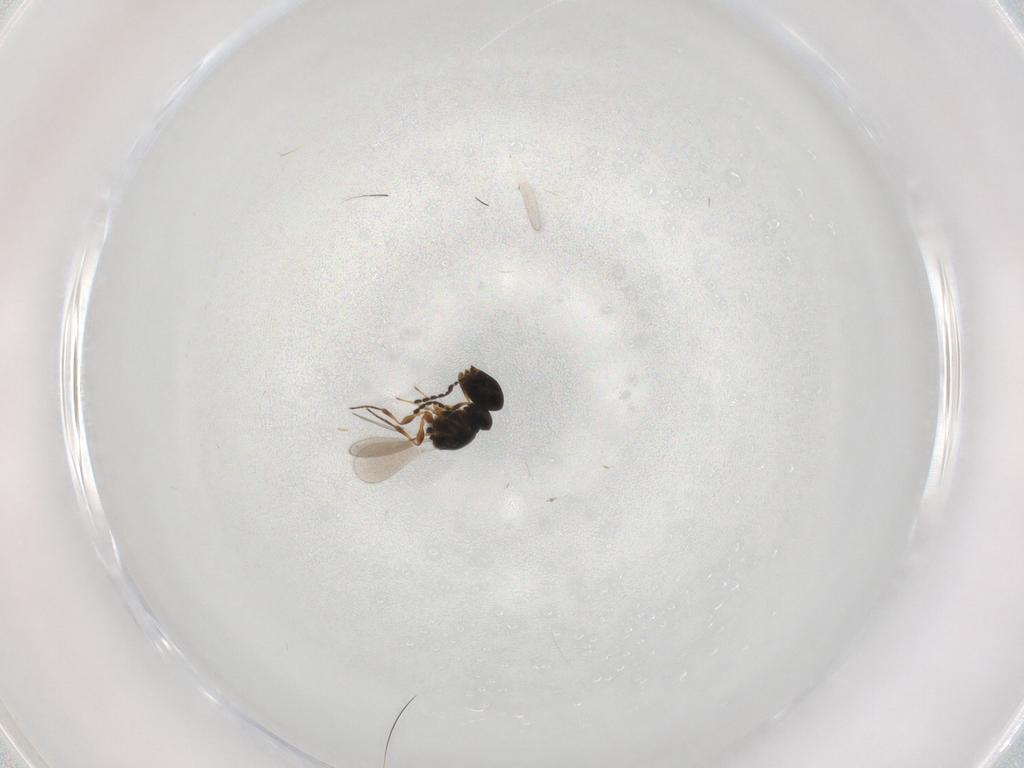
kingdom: Animalia
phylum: Arthropoda
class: Insecta
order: Hymenoptera
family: Platygastridae
